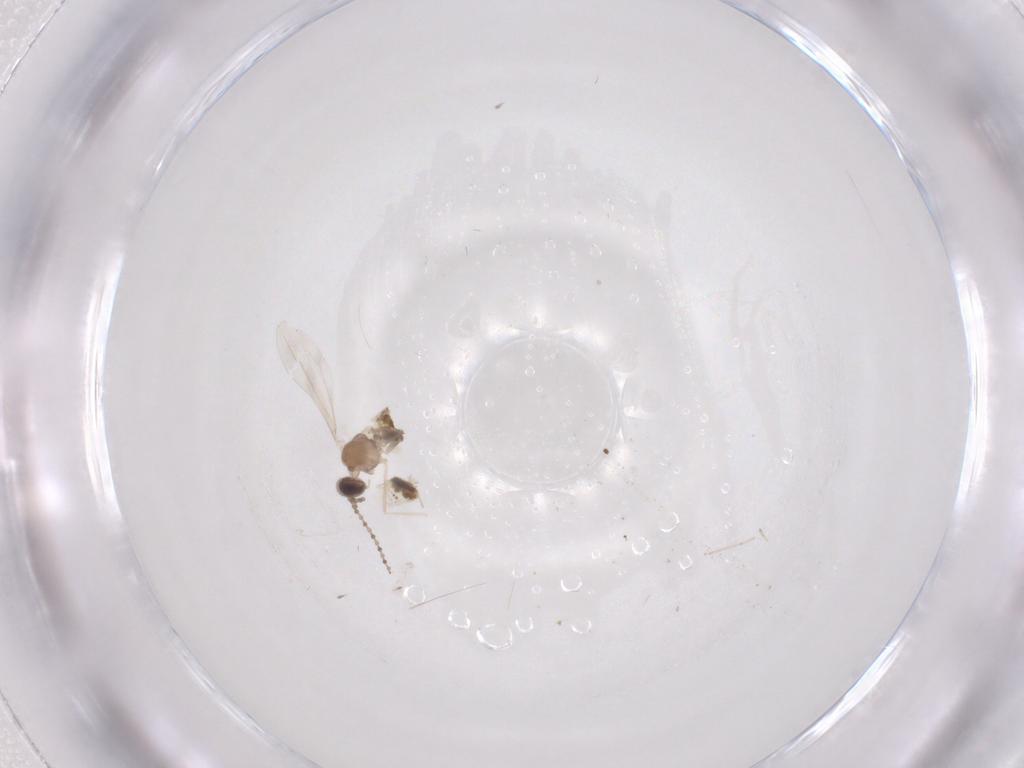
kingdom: Animalia
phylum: Arthropoda
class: Insecta
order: Diptera
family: Cecidomyiidae
